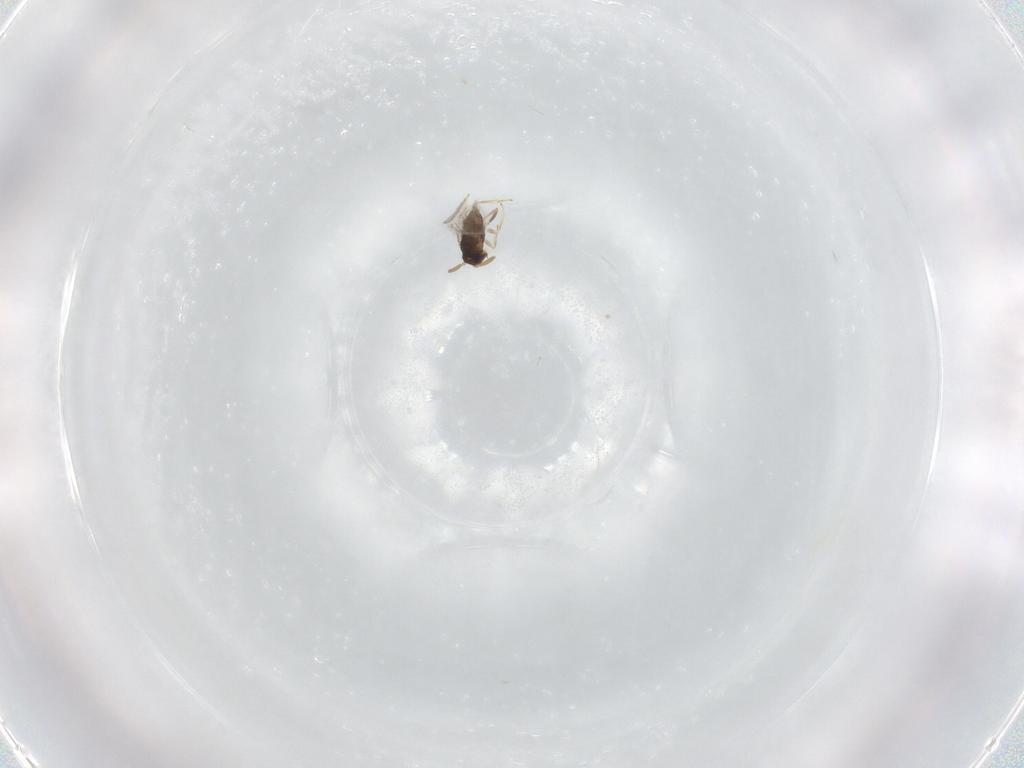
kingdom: Animalia
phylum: Arthropoda
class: Insecta
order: Hymenoptera
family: Encyrtidae
